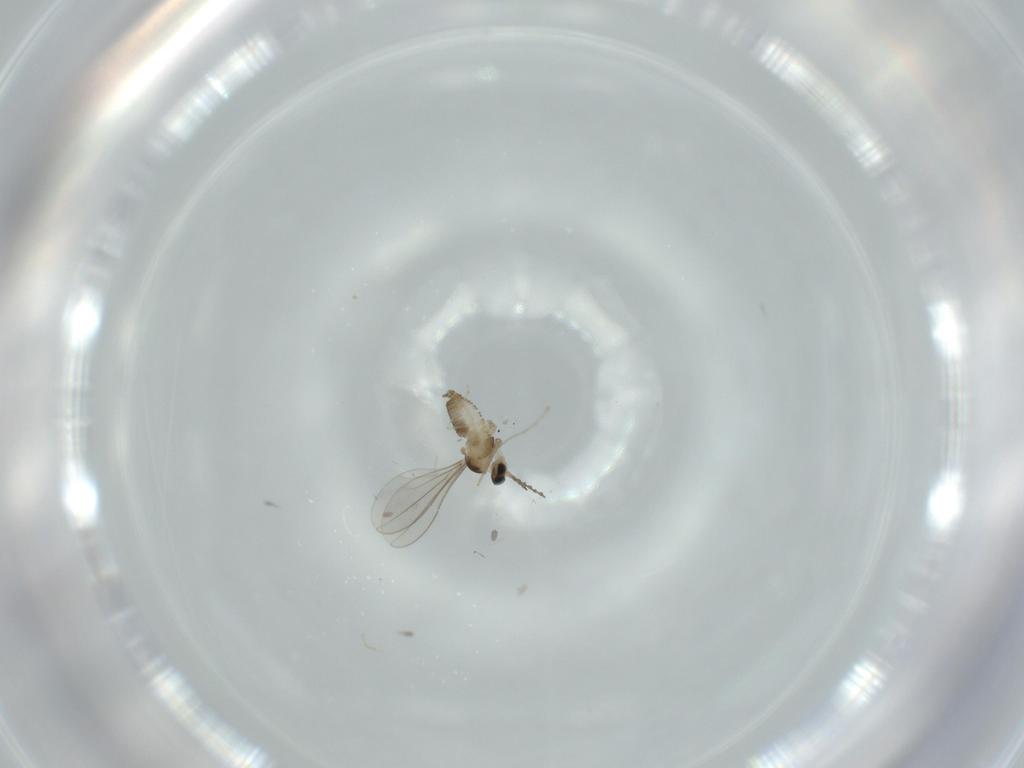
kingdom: Animalia
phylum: Arthropoda
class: Insecta
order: Diptera
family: Cecidomyiidae
